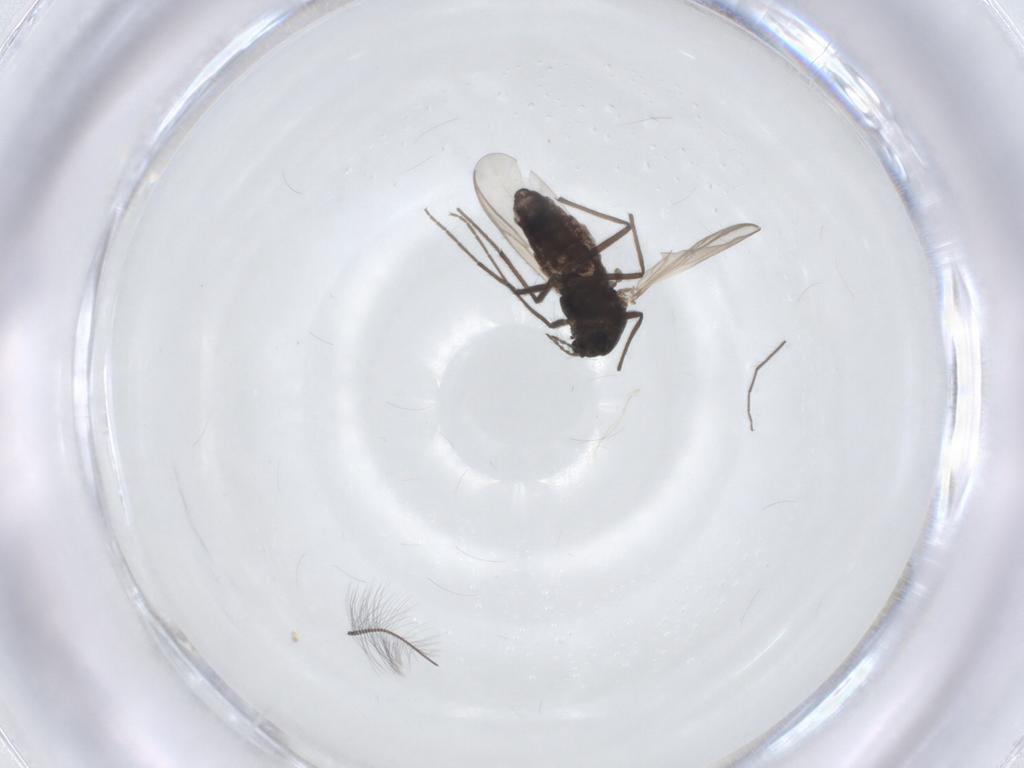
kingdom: Animalia
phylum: Arthropoda
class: Insecta
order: Diptera
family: Chironomidae
